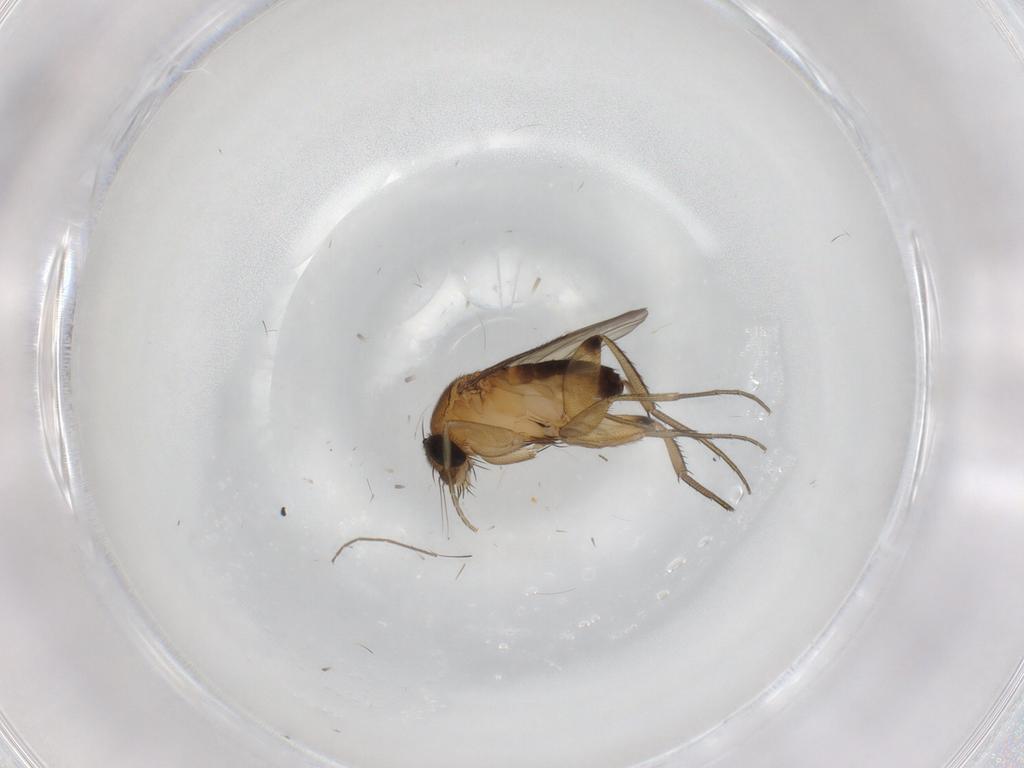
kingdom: Animalia
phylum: Arthropoda
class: Insecta
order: Diptera
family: Phoridae
